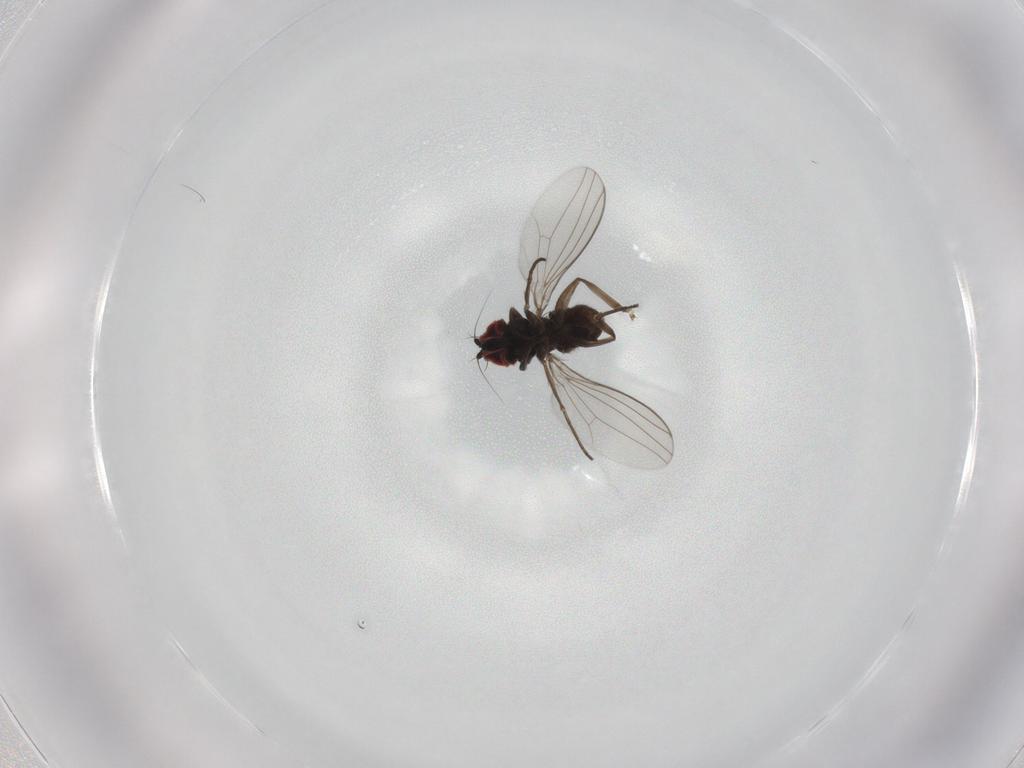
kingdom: Animalia
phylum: Arthropoda
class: Insecta
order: Diptera
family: Dolichopodidae
